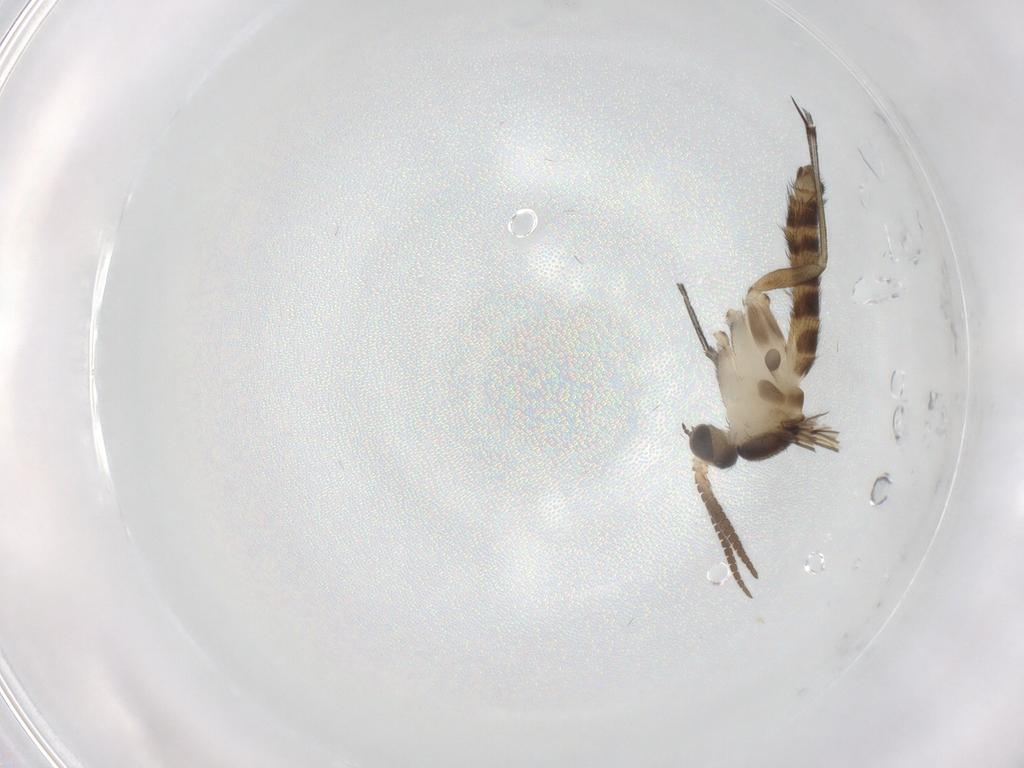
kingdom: Animalia
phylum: Arthropoda
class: Insecta
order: Diptera
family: Keroplatidae
